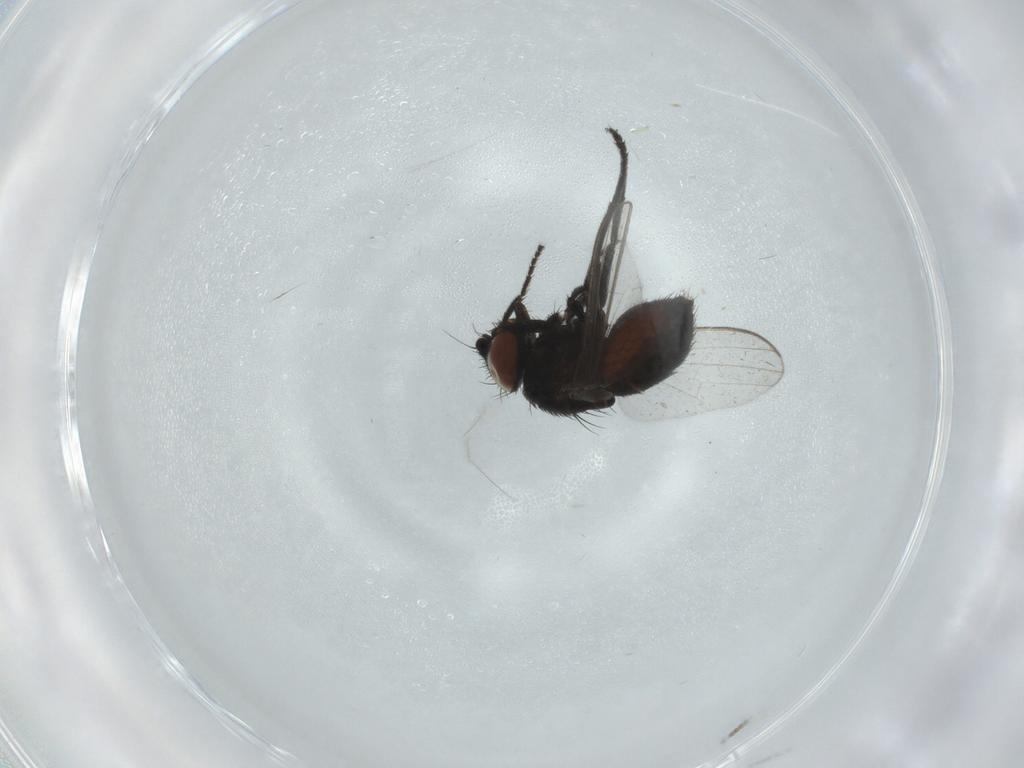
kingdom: Animalia
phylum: Arthropoda
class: Insecta
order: Diptera
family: Milichiidae
